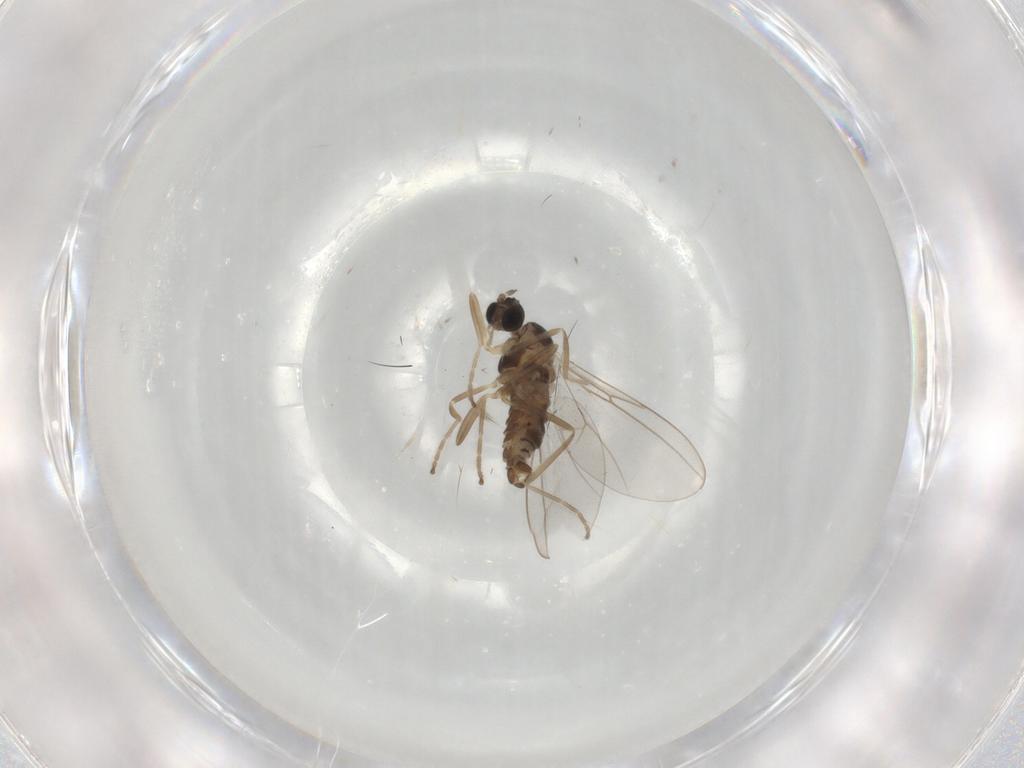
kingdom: Animalia
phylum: Arthropoda
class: Insecta
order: Diptera
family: Cecidomyiidae
